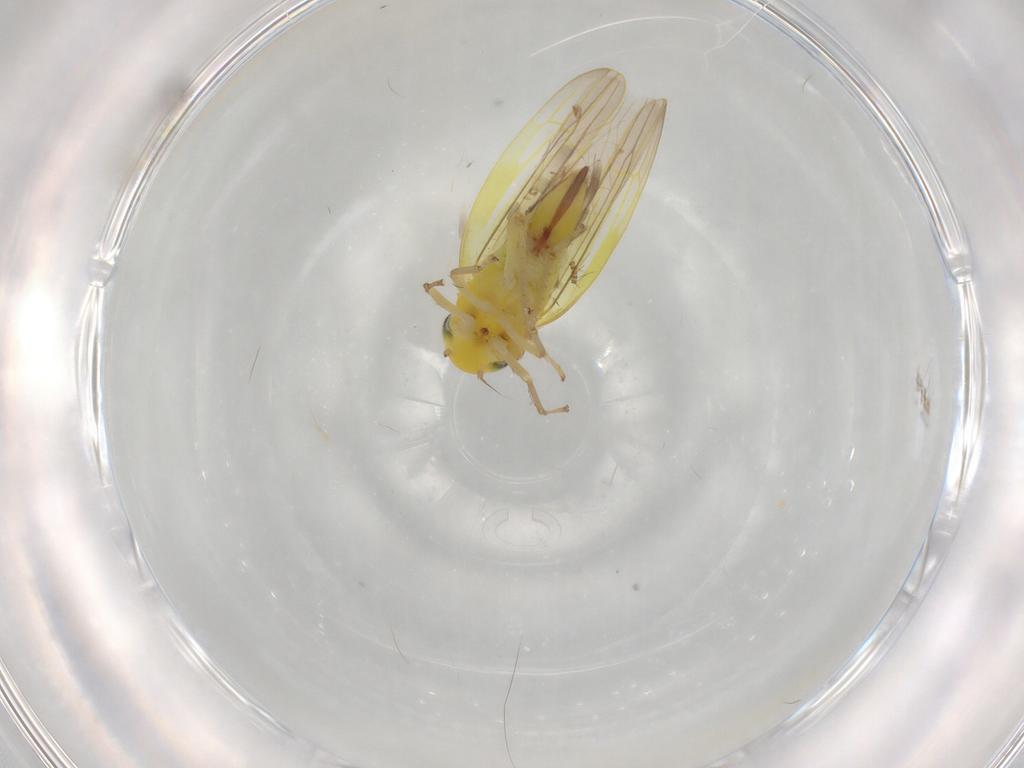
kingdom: Animalia
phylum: Arthropoda
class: Insecta
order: Hemiptera
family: Cicadellidae
